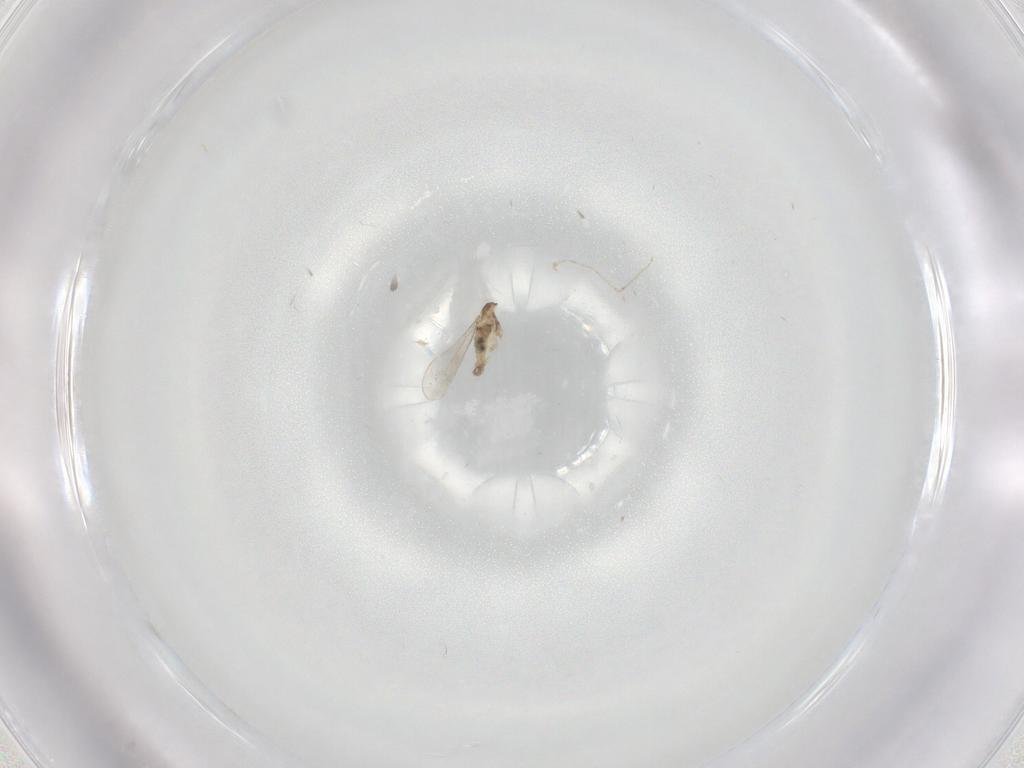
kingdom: Animalia
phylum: Arthropoda
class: Insecta
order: Diptera
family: Cecidomyiidae
